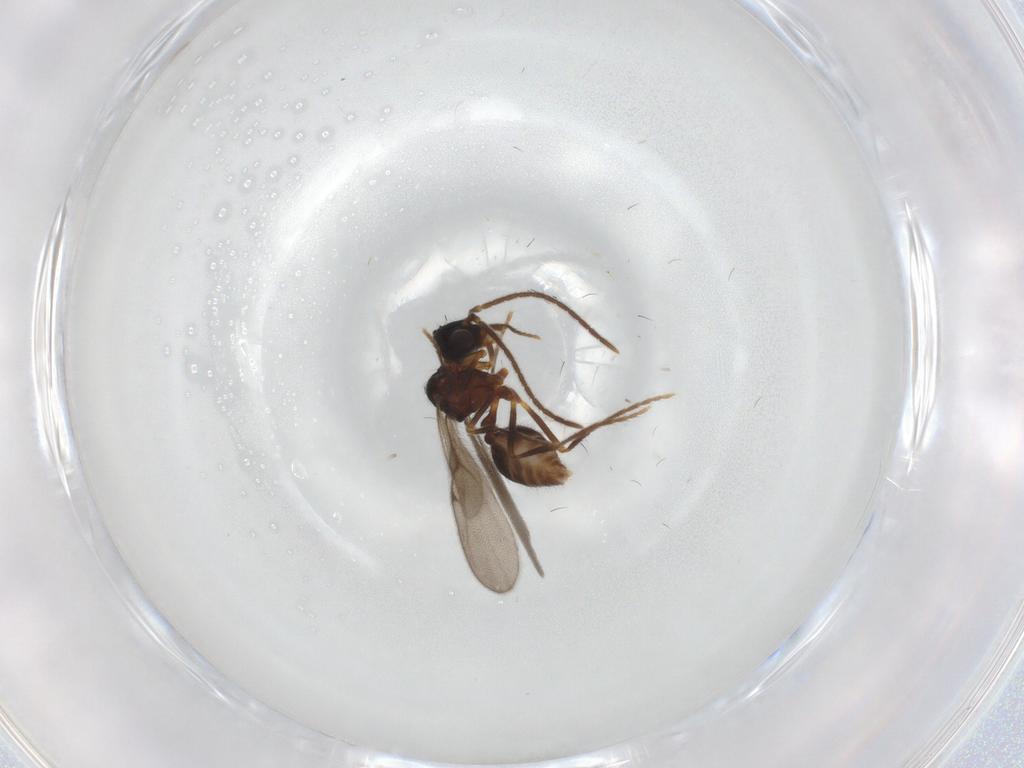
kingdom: Animalia
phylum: Arthropoda
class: Insecta
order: Hymenoptera
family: Formicidae
